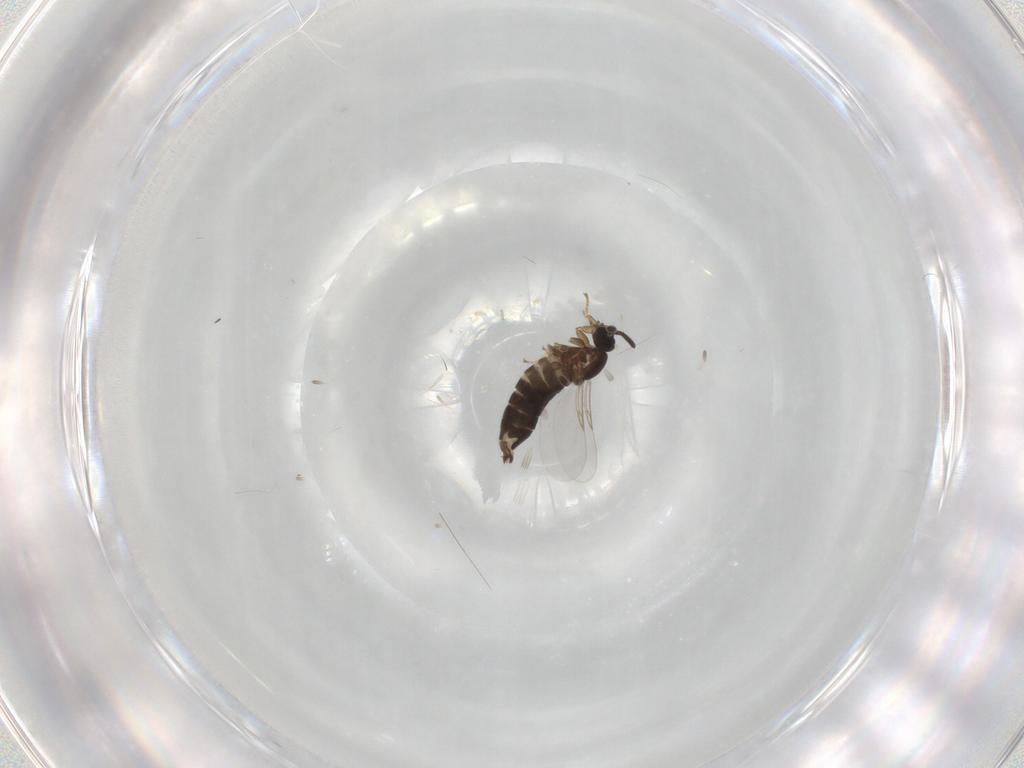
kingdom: Animalia
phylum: Arthropoda
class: Insecta
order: Diptera
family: Scatopsidae
